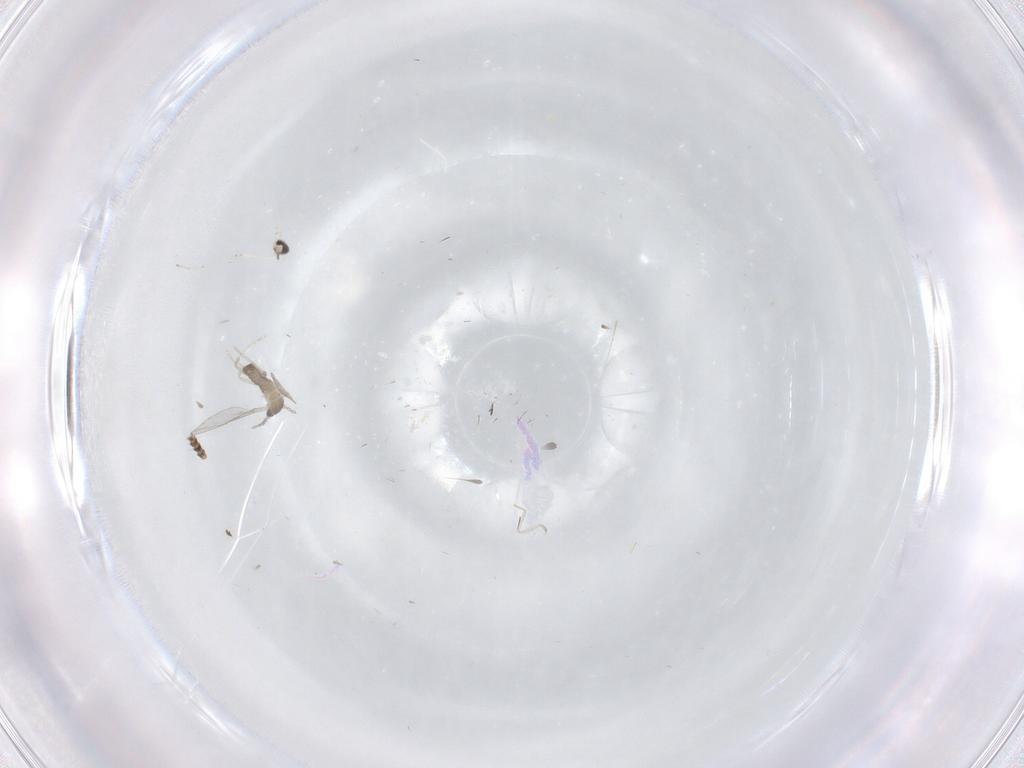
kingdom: Animalia
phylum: Arthropoda
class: Insecta
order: Diptera
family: Cecidomyiidae
